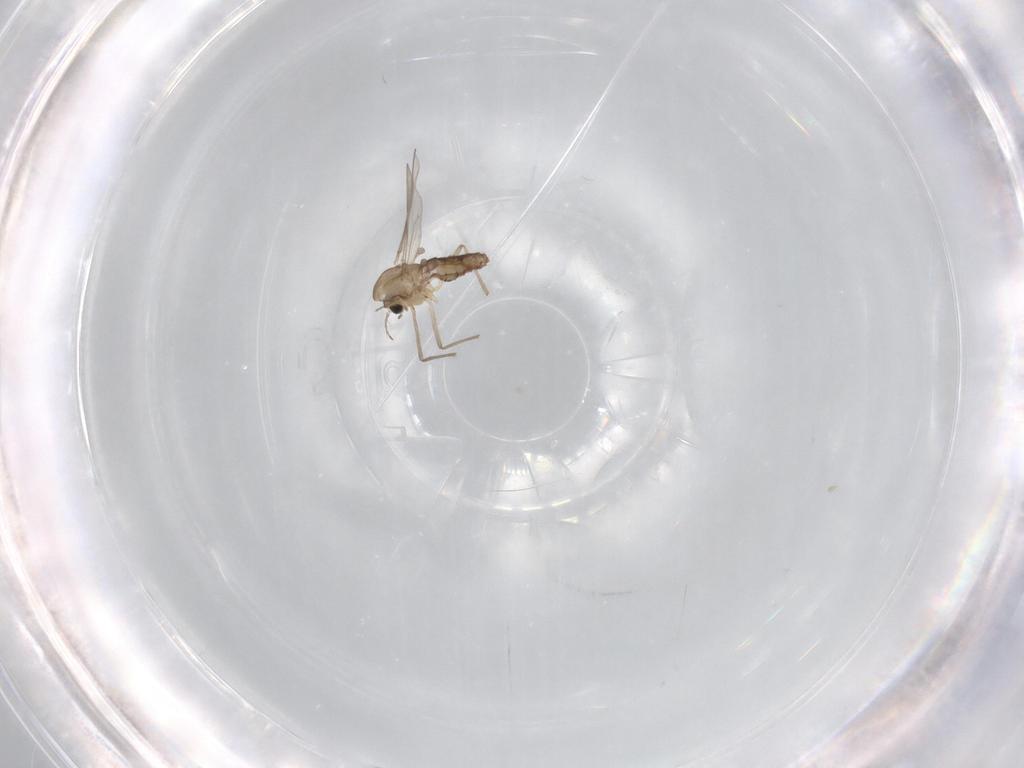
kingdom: Animalia
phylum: Arthropoda
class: Insecta
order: Diptera
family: Chironomidae
